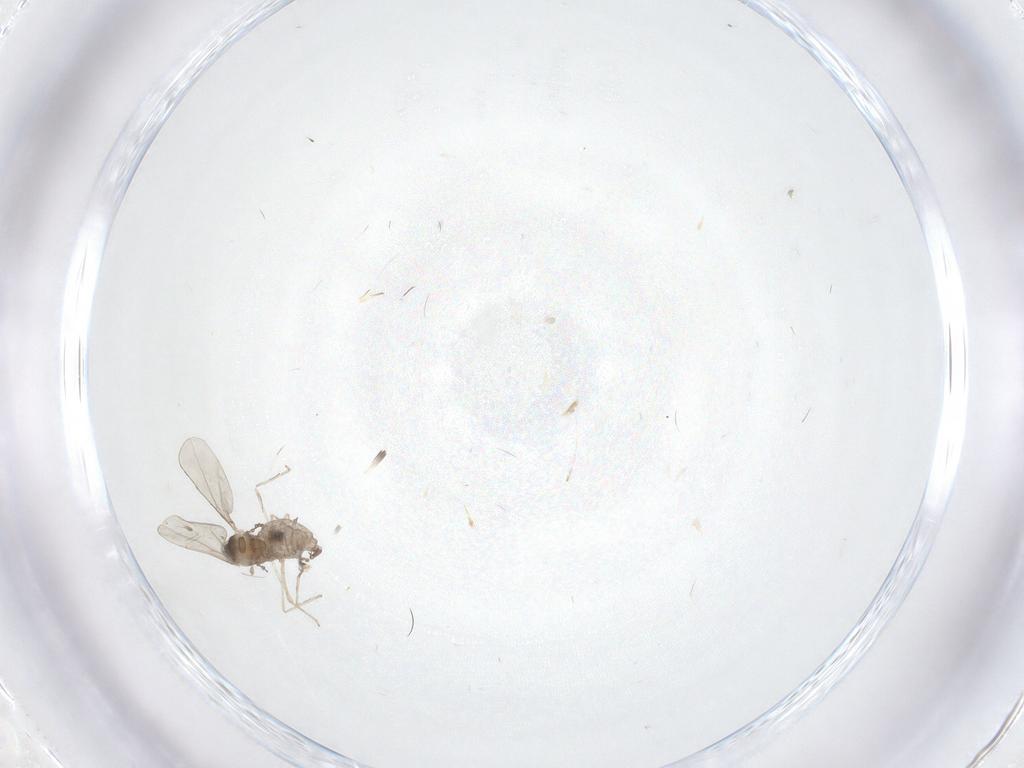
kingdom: Animalia
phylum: Arthropoda
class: Insecta
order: Diptera
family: Cecidomyiidae
